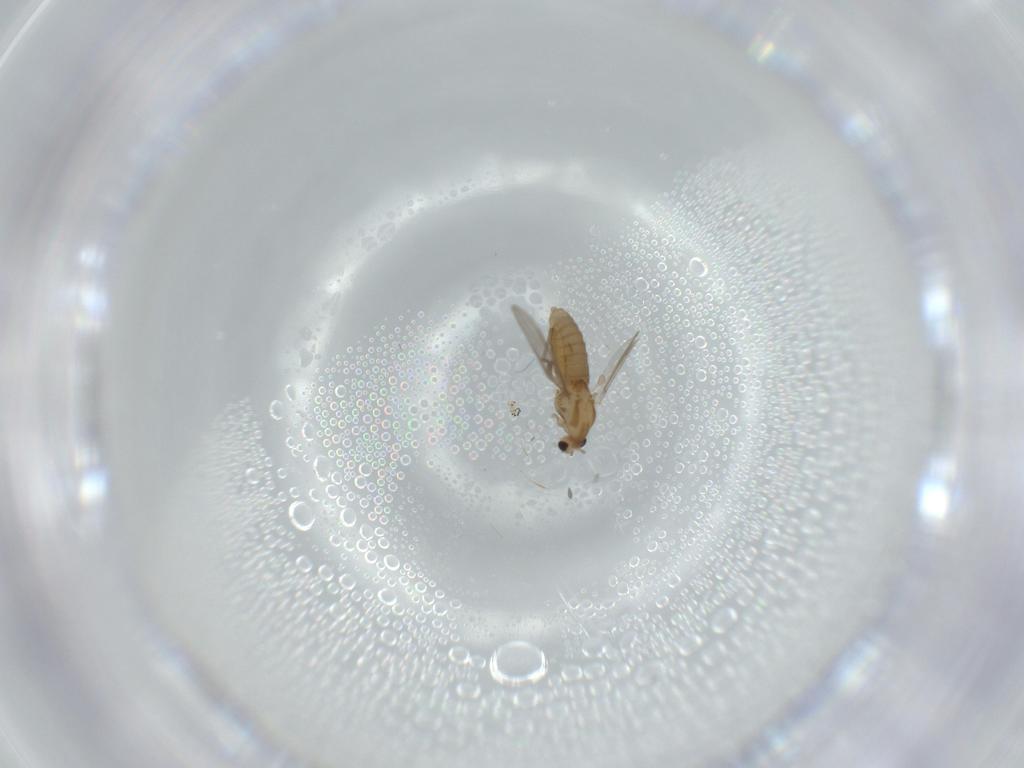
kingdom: Animalia
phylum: Arthropoda
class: Insecta
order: Diptera
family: Chironomidae
